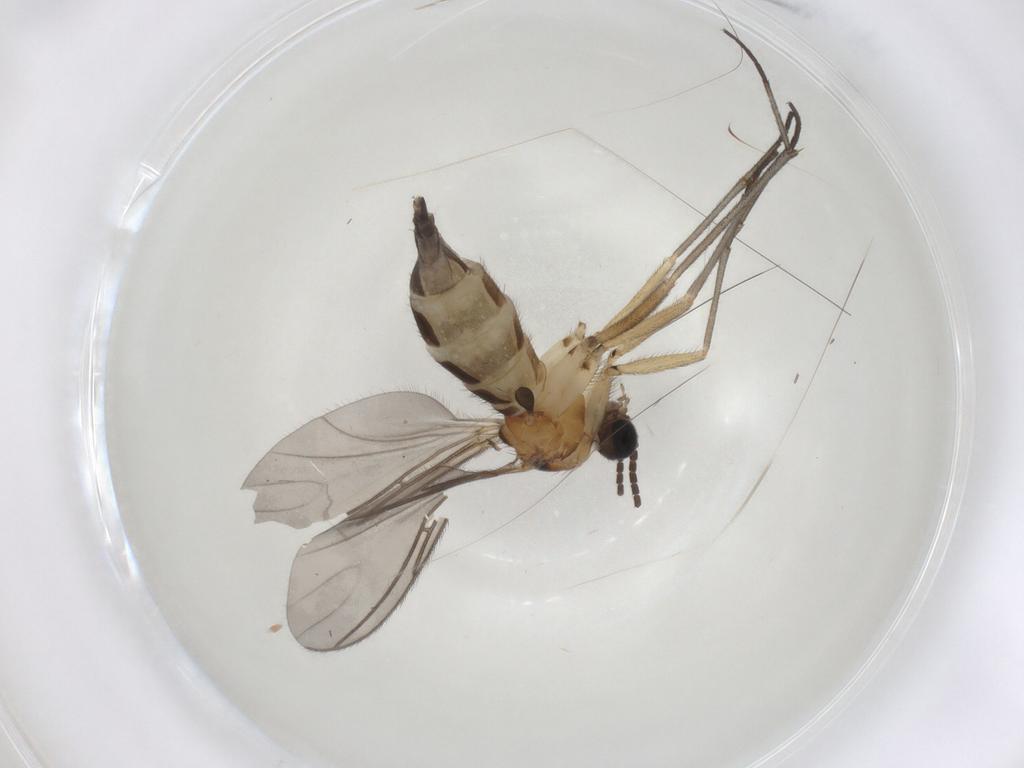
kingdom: Animalia
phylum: Arthropoda
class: Insecta
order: Diptera
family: Sciaridae
